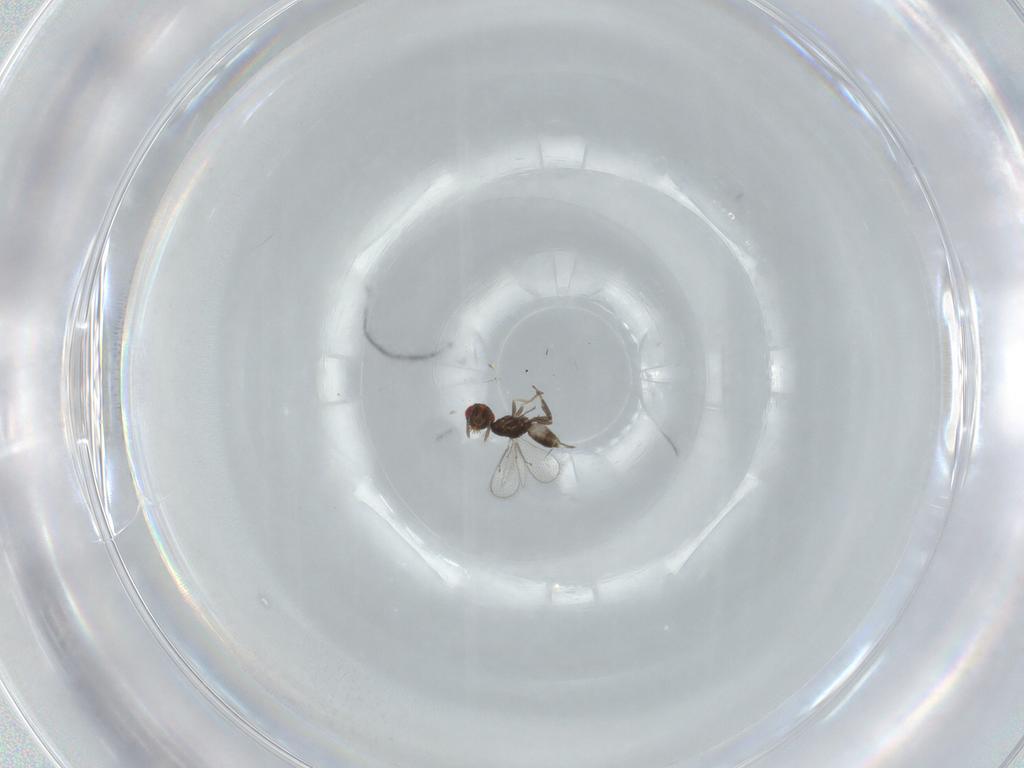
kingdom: Animalia
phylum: Arthropoda
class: Insecta
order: Hymenoptera
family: Eulophidae
